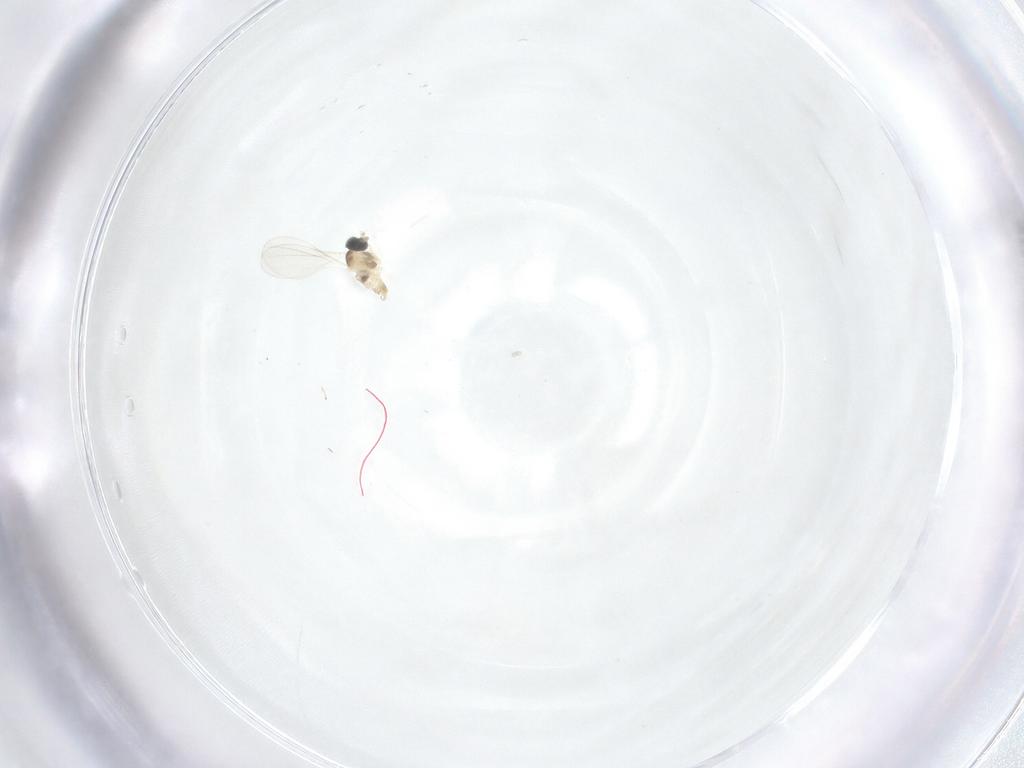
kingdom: Animalia
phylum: Arthropoda
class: Insecta
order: Diptera
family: Cecidomyiidae
